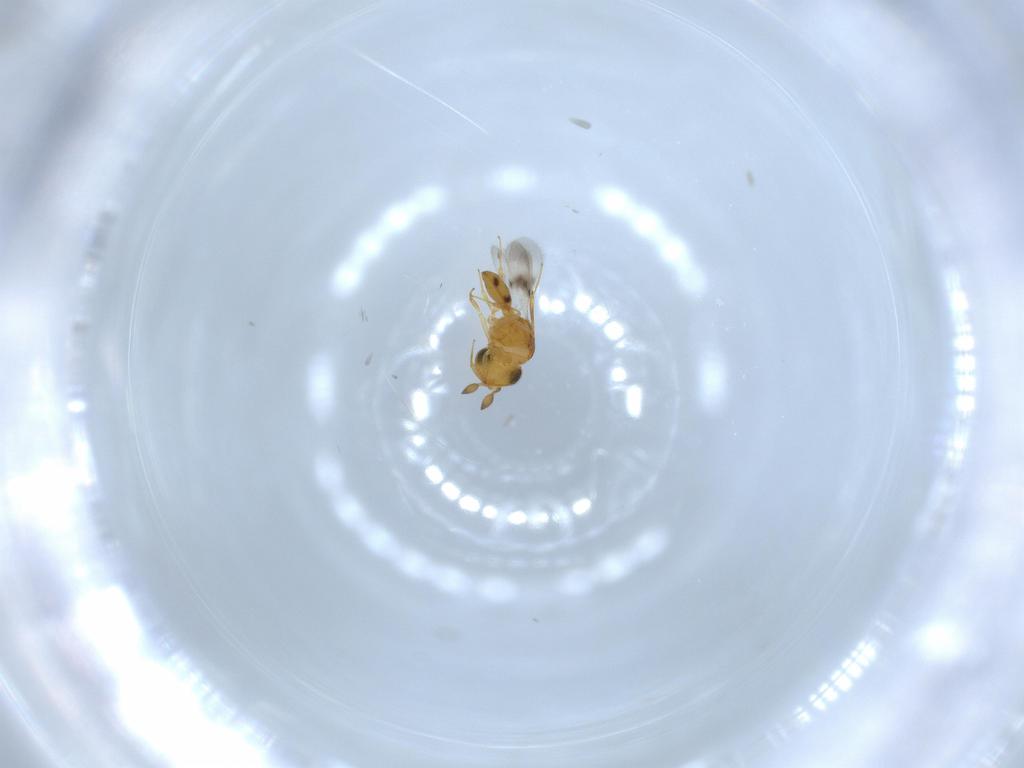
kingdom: Animalia
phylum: Arthropoda
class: Insecta
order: Hymenoptera
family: Scelionidae
